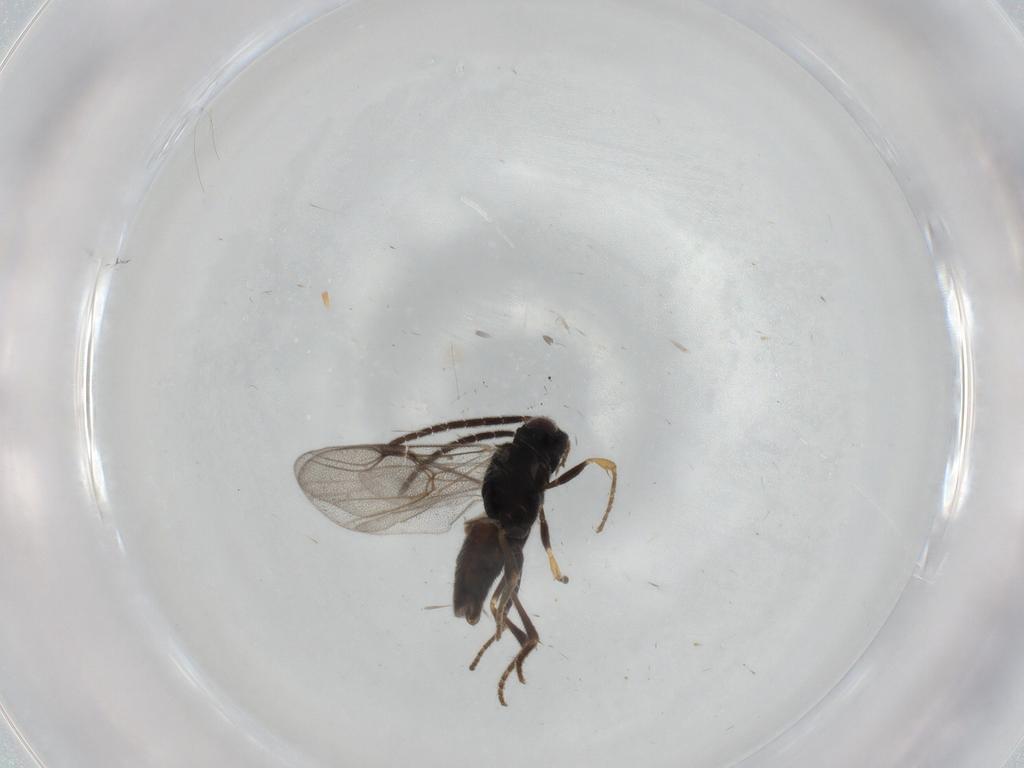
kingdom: Animalia
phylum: Arthropoda
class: Insecta
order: Hymenoptera
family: Dryinidae
